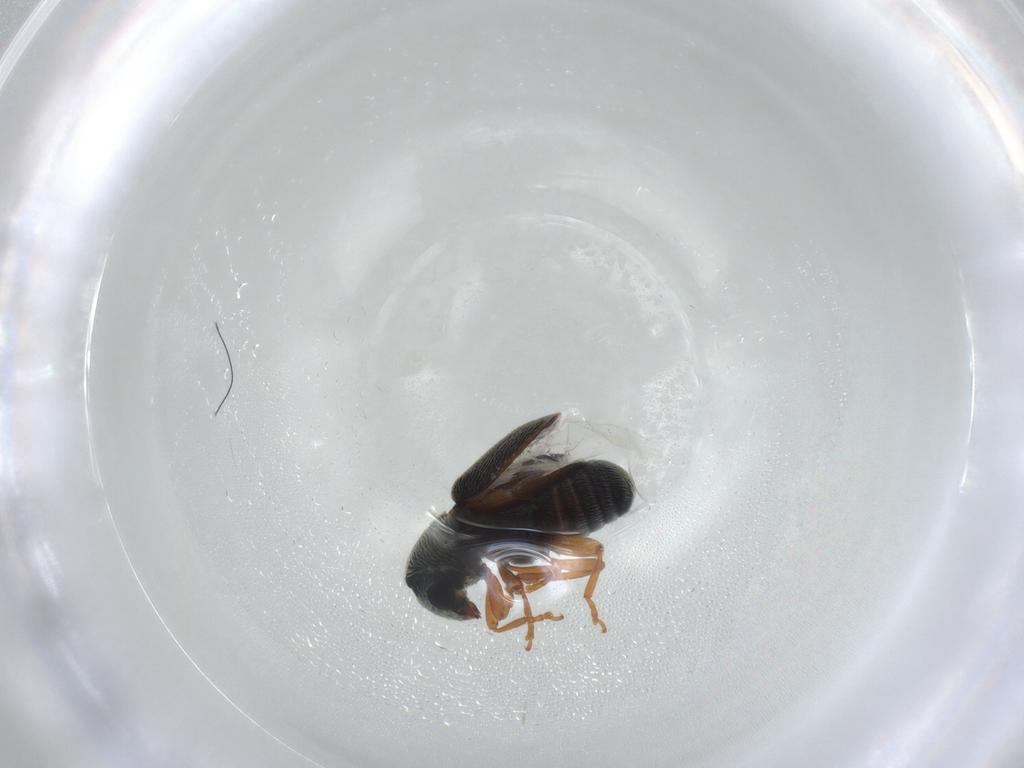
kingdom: Animalia
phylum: Arthropoda
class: Insecta
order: Coleoptera
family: Anthribidae
